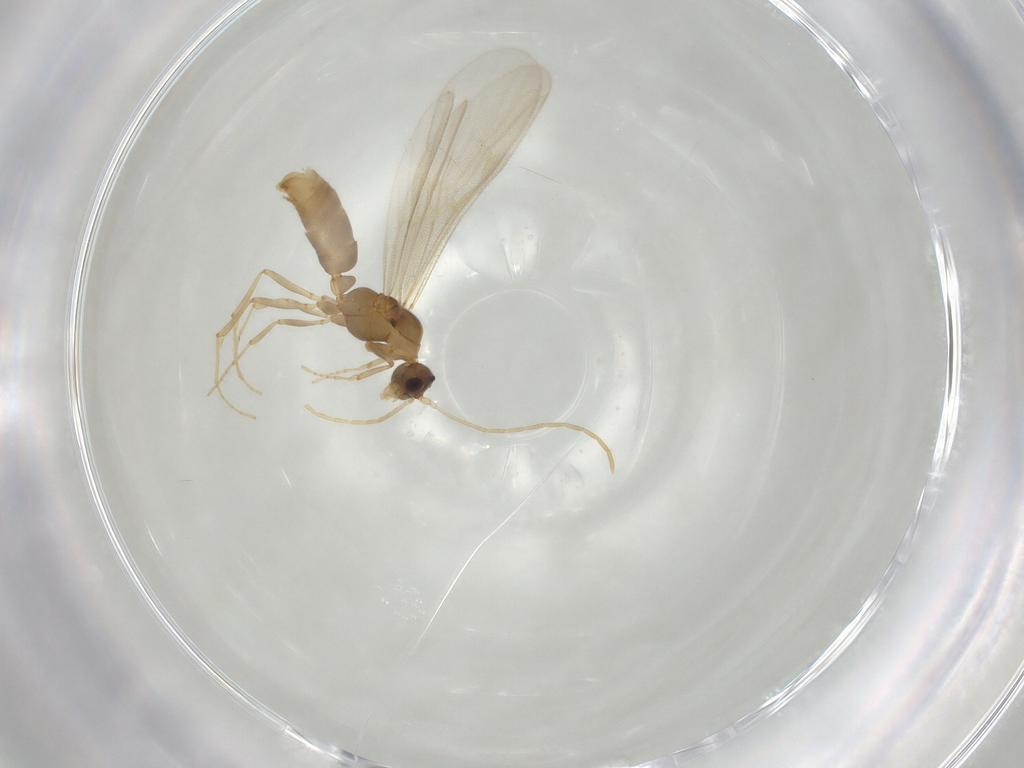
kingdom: Animalia
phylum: Arthropoda
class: Insecta
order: Hymenoptera
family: Formicidae
